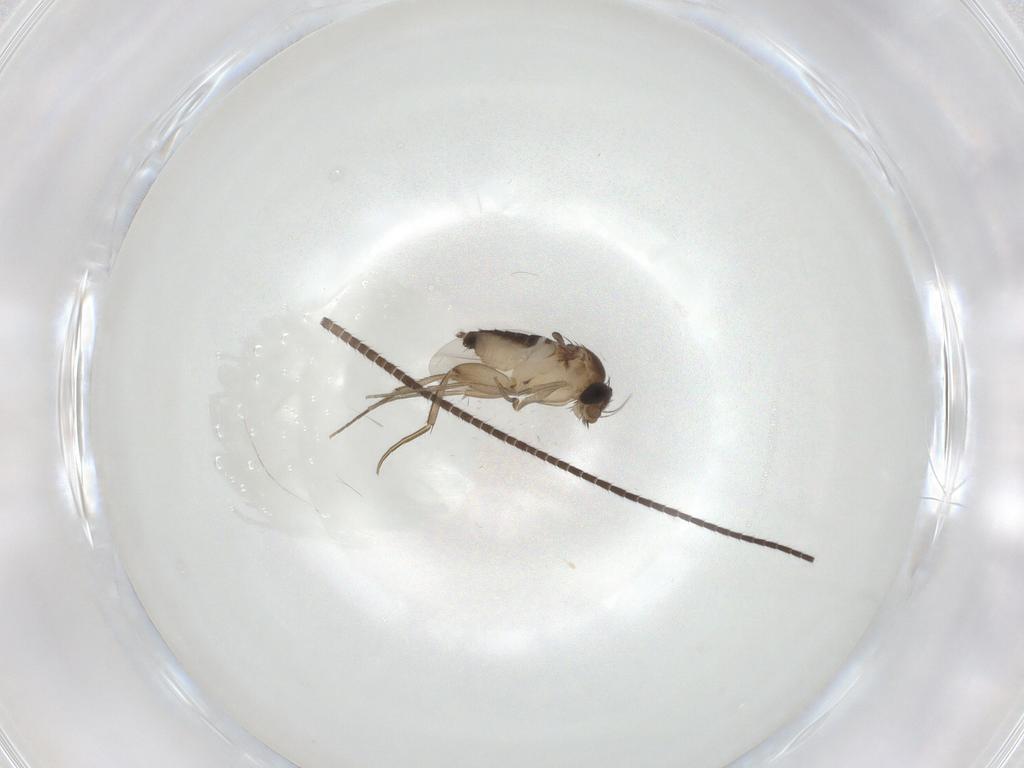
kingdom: Animalia
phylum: Arthropoda
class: Insecta
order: Diptera
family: Phoridae
